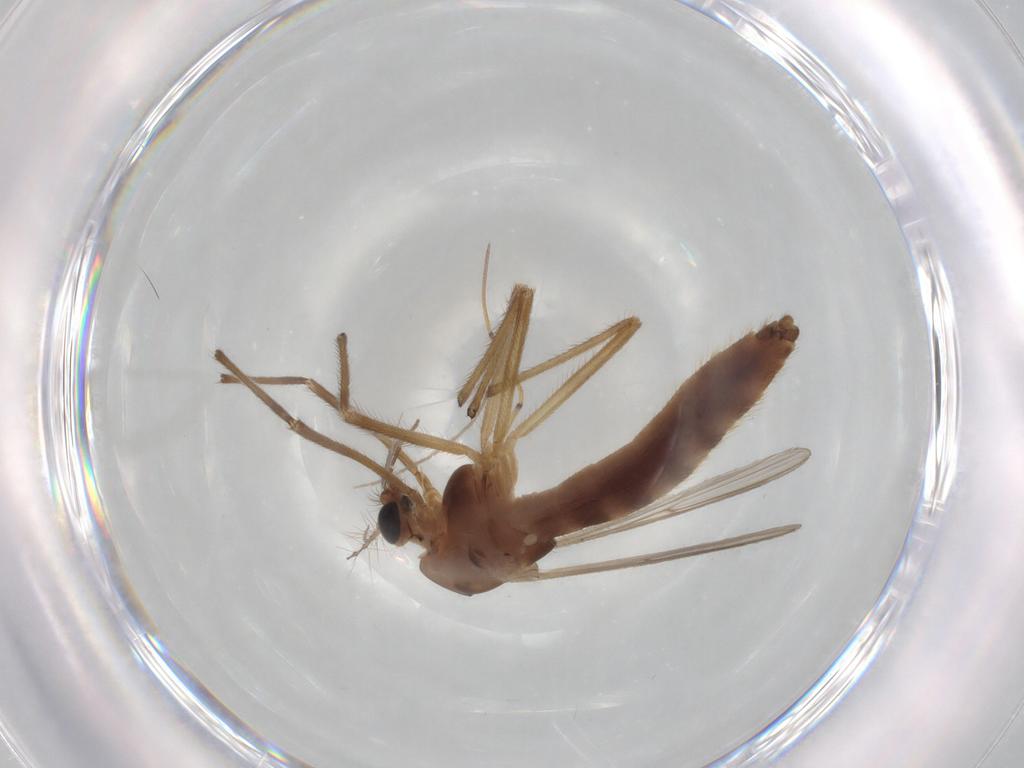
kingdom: Animalia
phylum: Arthropoda
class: Insecta
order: Diptera
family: Chironomidae
